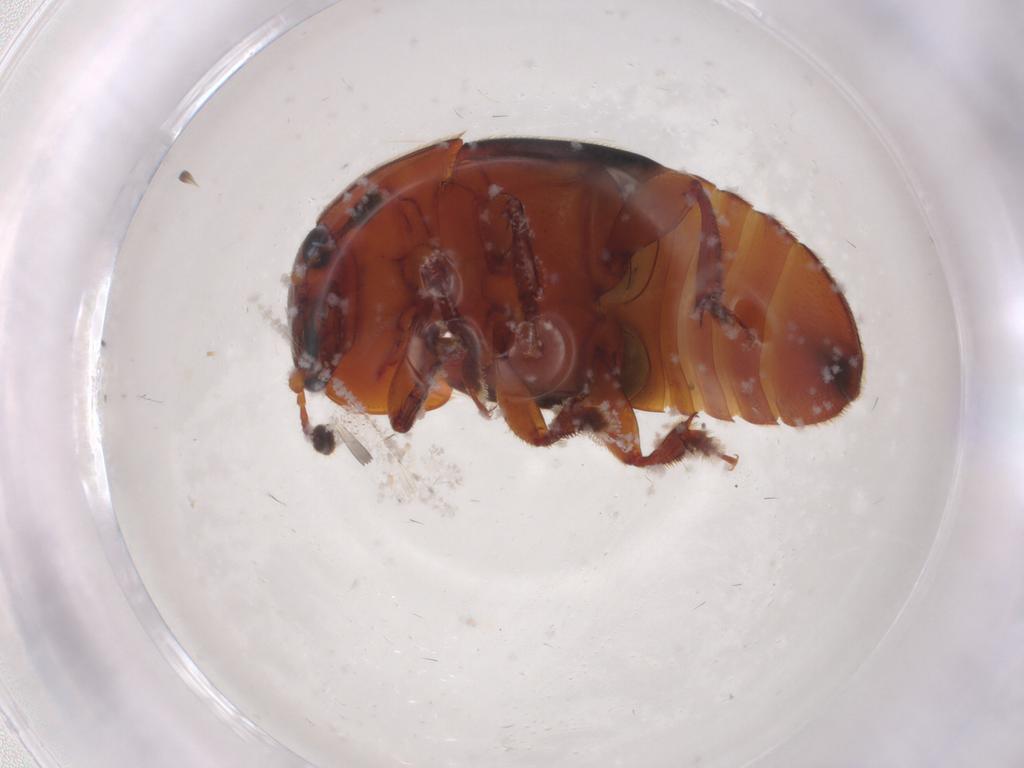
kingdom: Animalia
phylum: Arthropoda
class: Insecta
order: Coleoptera
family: Nitidulidae
